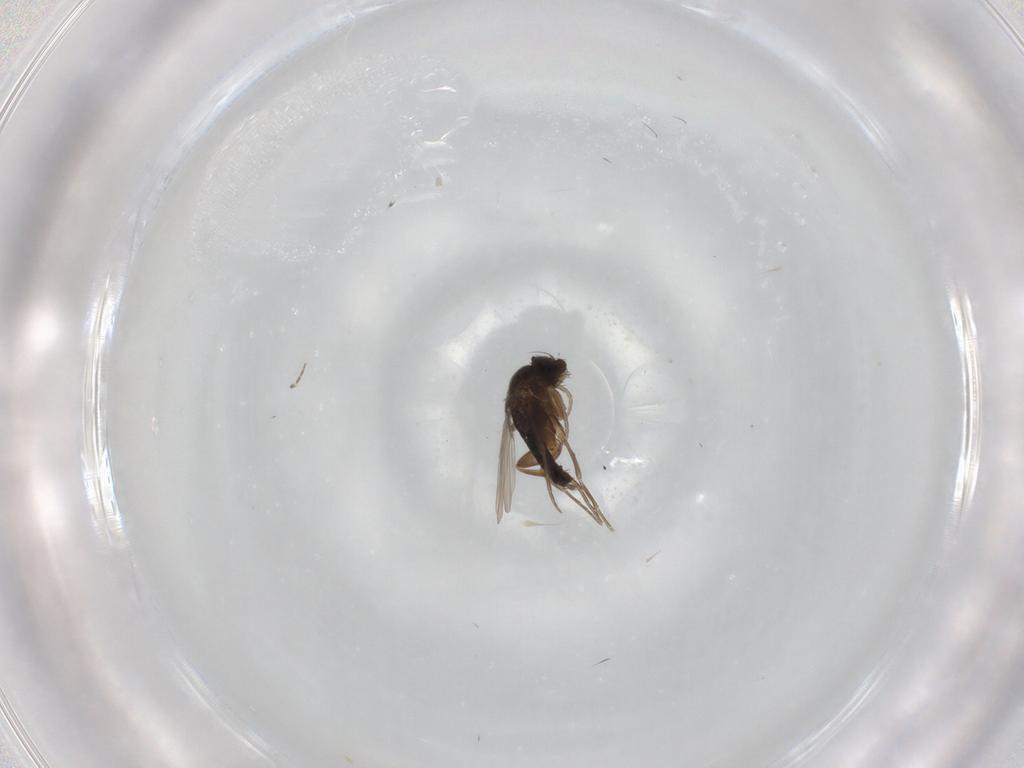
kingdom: Animalia
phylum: Arthropoda
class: Insecta
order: Diptera
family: Phoridae
